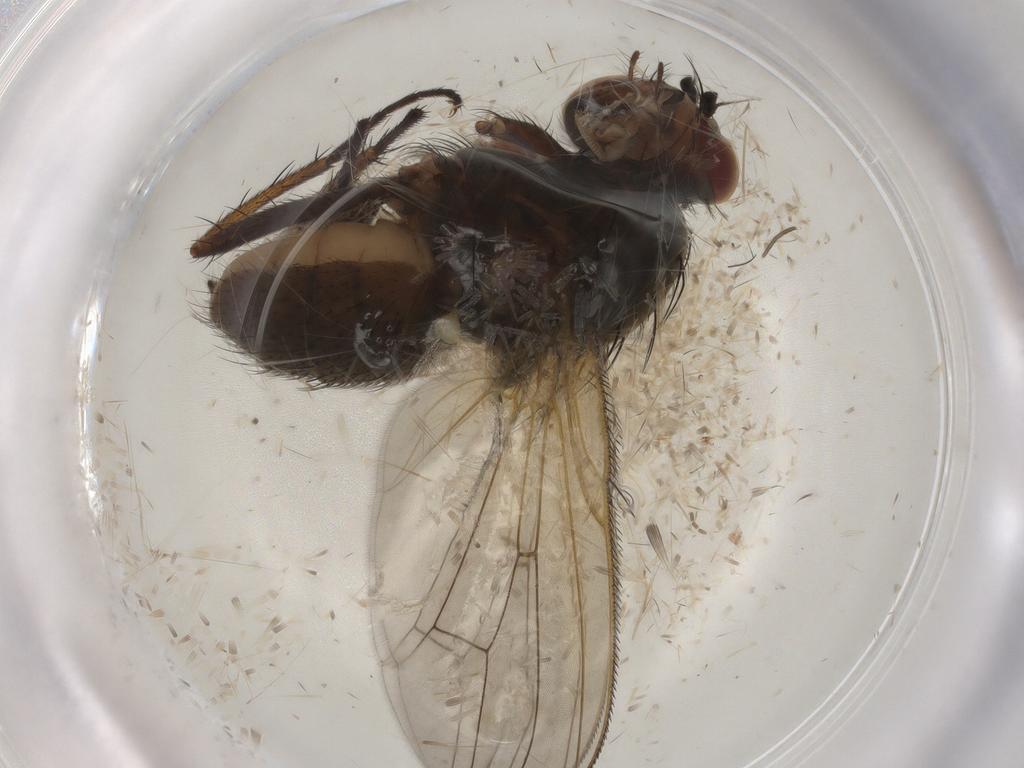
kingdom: Animalia
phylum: Arthropoda
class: Insecta
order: Diptera
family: Anthomyiidae
